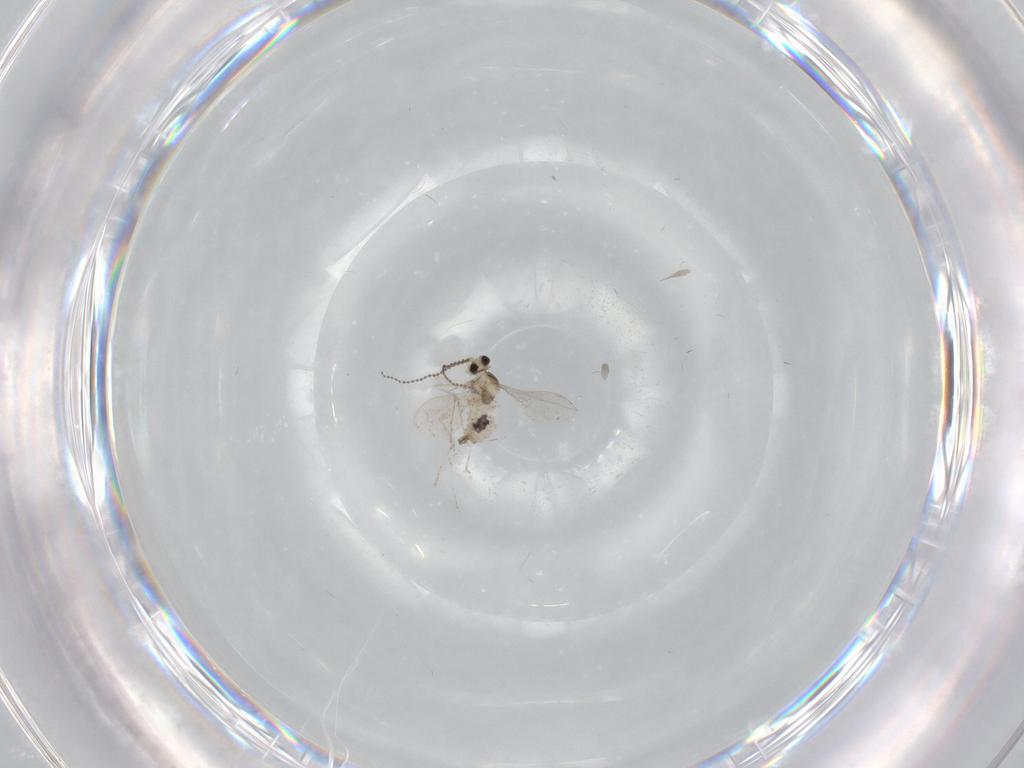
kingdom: Animalia
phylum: Arthropoda
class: Insecta
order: Diptera
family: Cecidomyiidae
